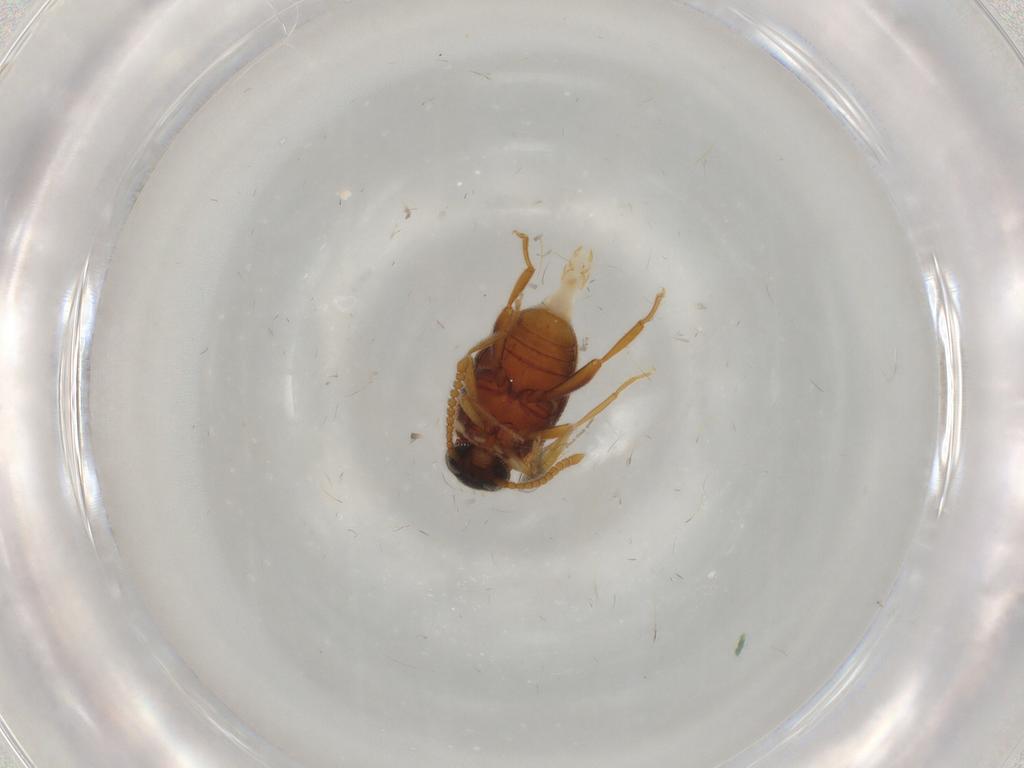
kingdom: Animalia
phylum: Arthropoda
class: Insecta
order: Coleoptera
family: Aderidae
